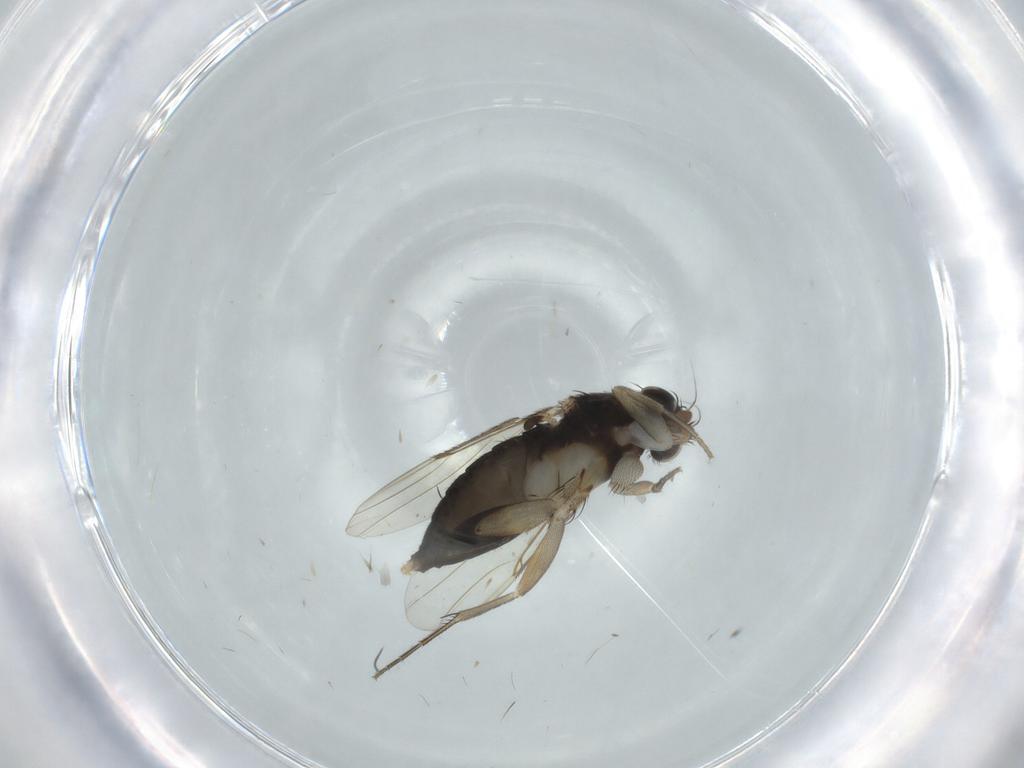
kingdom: Animalia
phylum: Arthropoda
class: Insecta
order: Diptera
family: Phoridae
